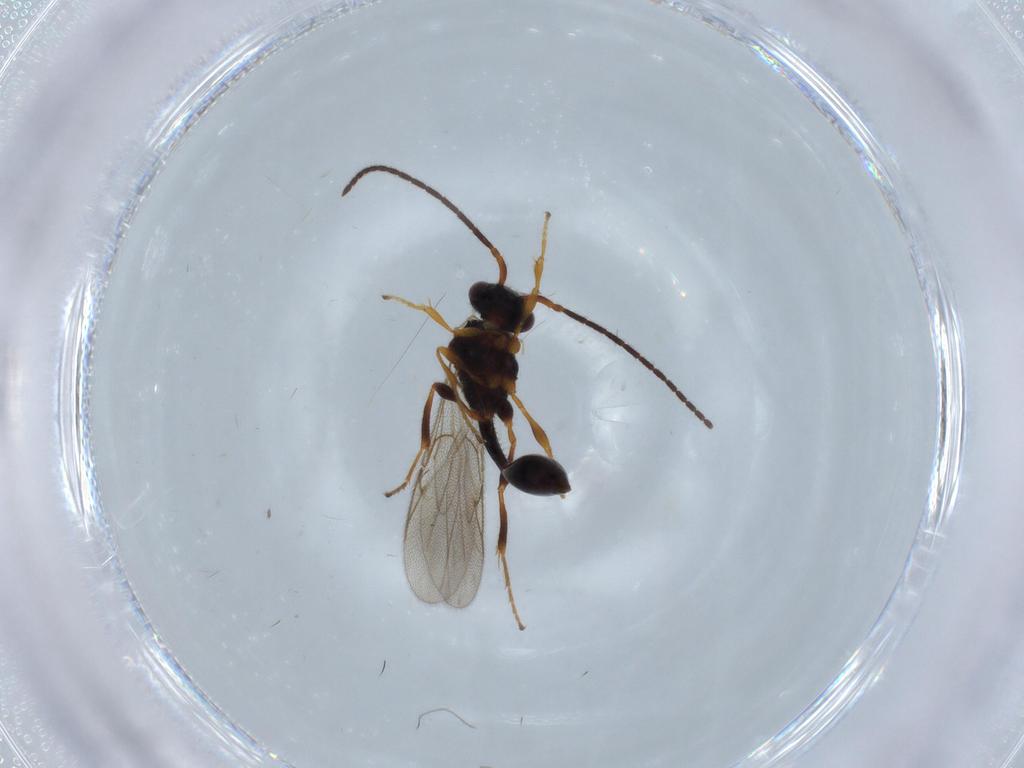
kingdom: Animalia
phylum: Arthropoda
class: Insecta
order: Hymenoptera
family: Diapriidae
